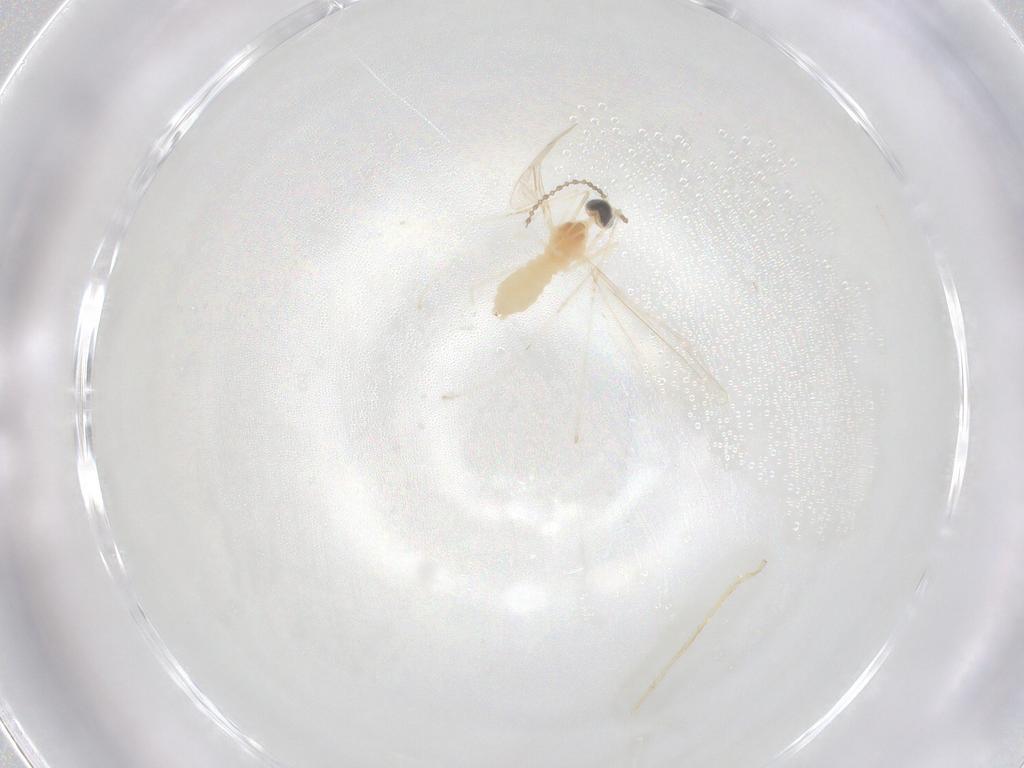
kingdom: Animalia
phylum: Arthropoda
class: Insecta
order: Diptera
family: Cecidomyiidae
